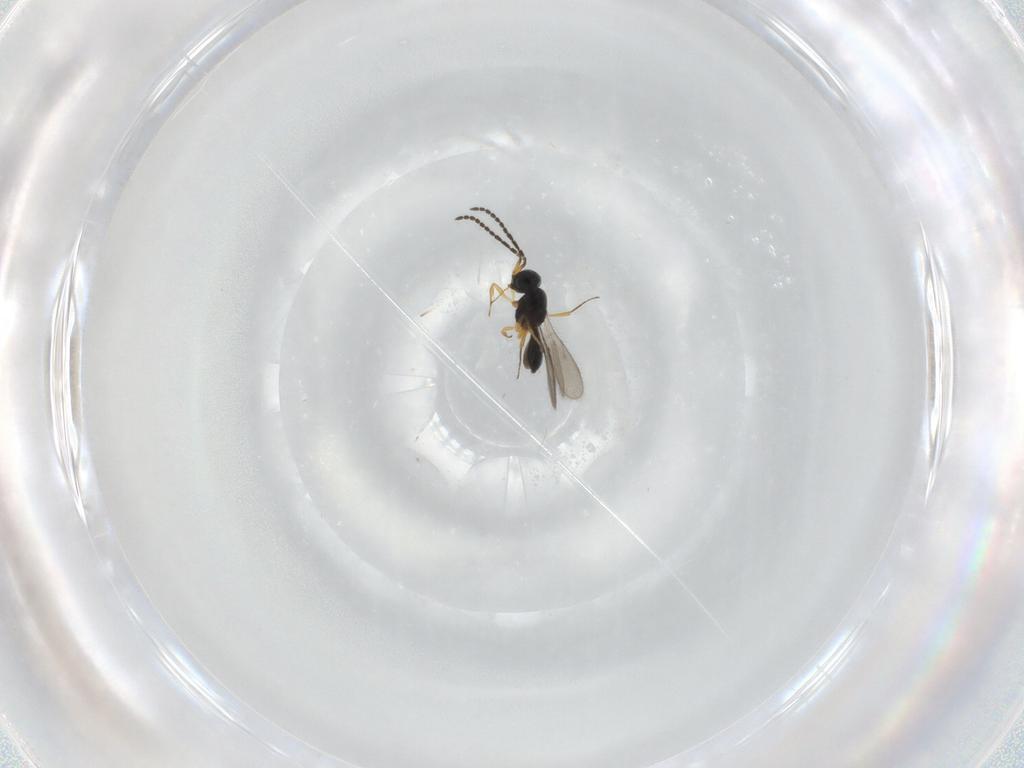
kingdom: Animalia
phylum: Arthropoda
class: Insecta
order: Hymenoptera
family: Scelionidae
